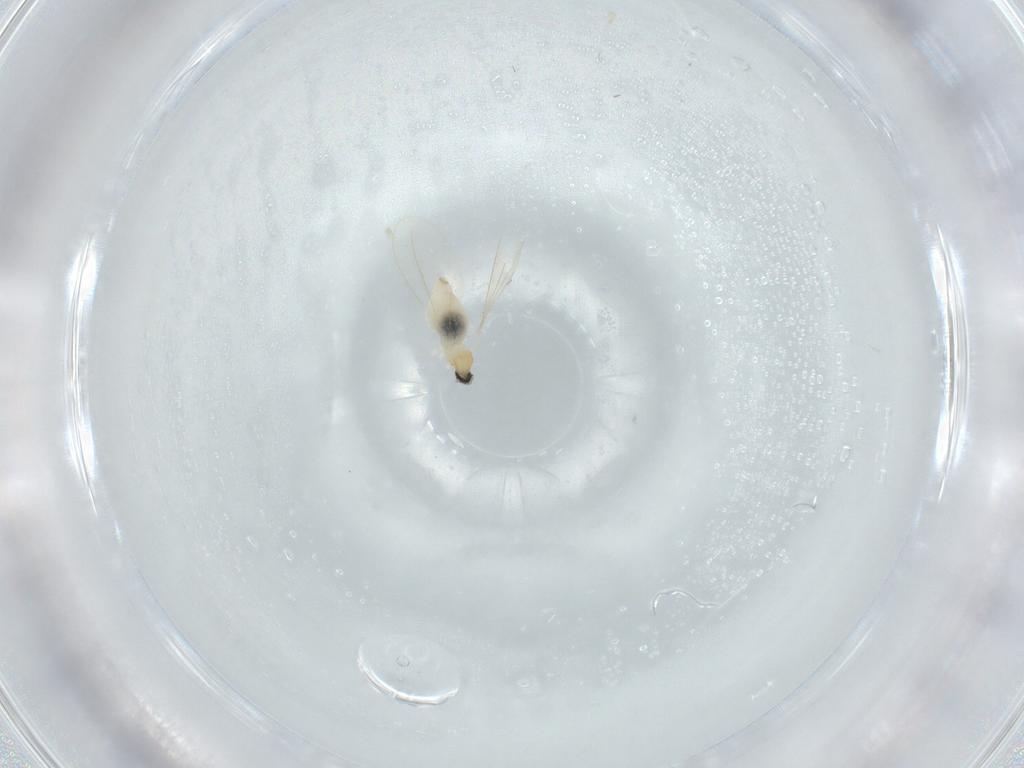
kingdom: Animalia
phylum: Arthropoda
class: Insecta
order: Diptera
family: Cecidomyiidae
